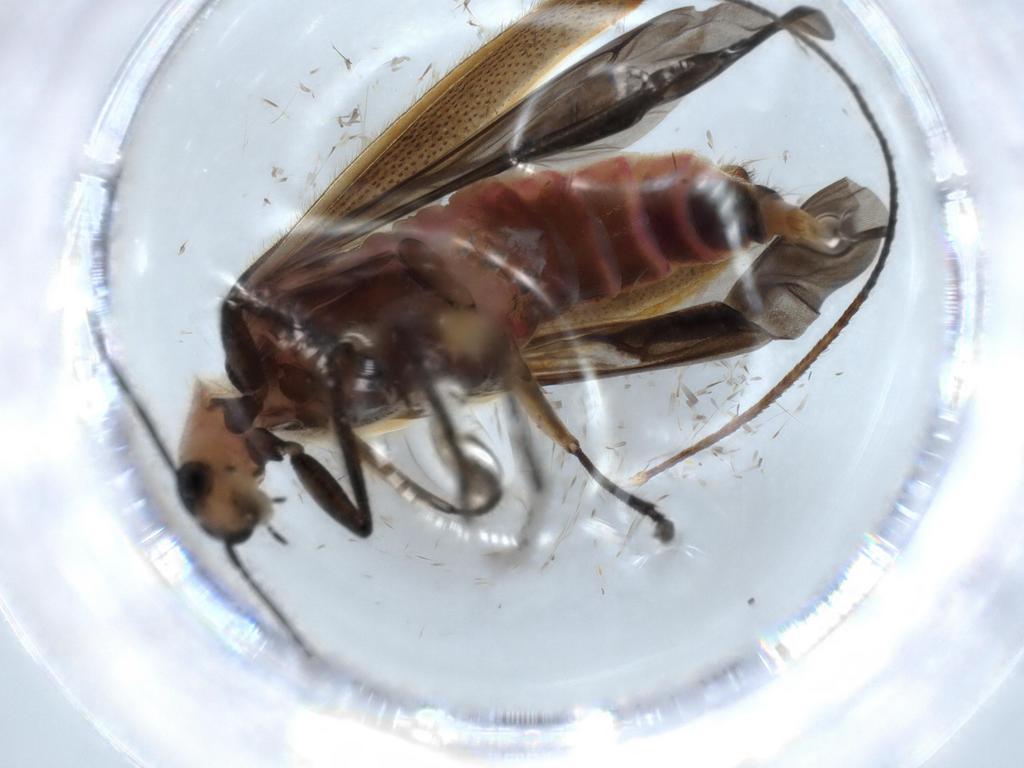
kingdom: Animalia
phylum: Arthropoda
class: Insecta
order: Coleoptera
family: Cleridae
